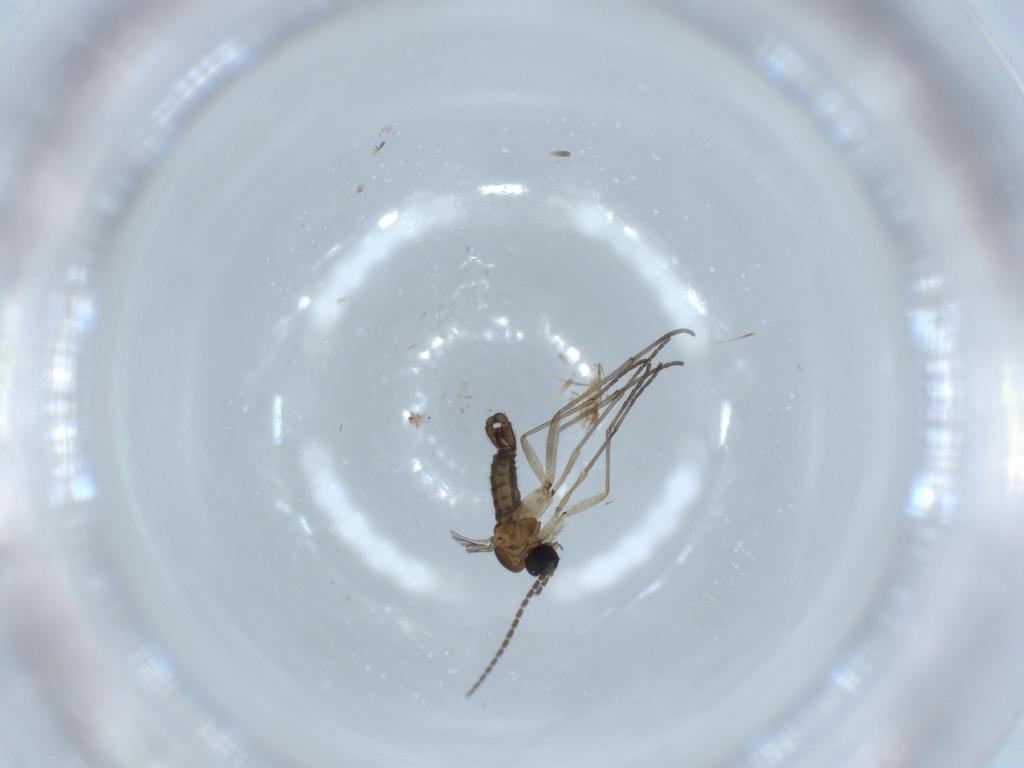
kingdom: Animalia
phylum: Arthropoda
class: Insecta
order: Diptera
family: Sciaridae
